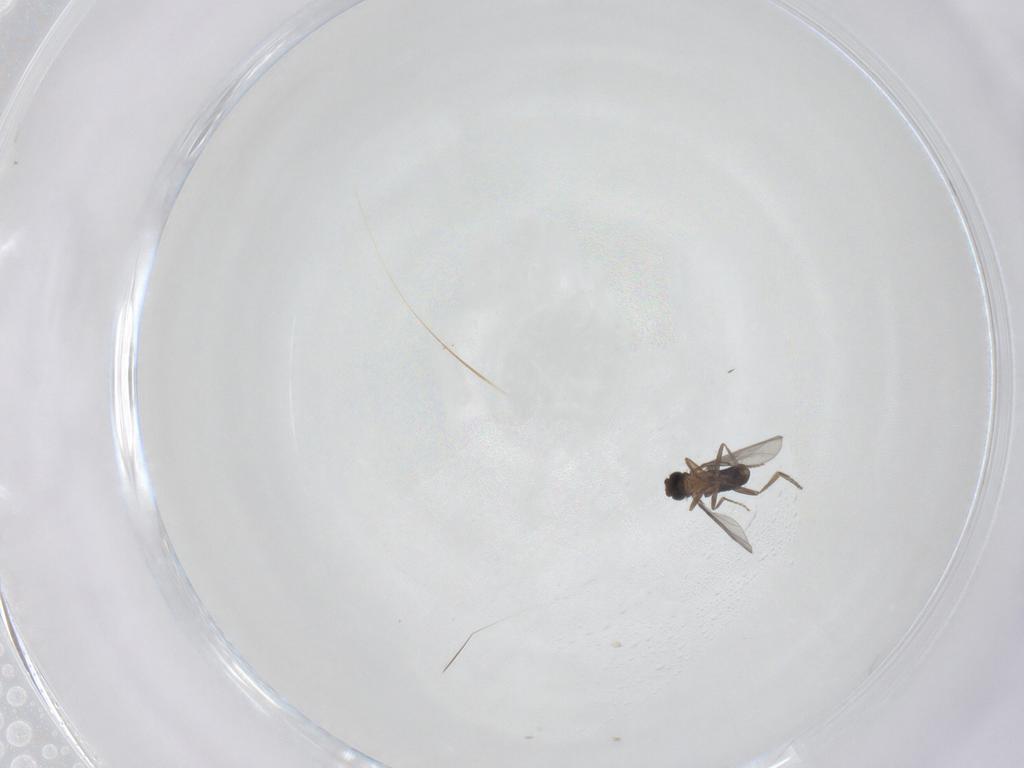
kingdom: Animalia
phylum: Arthropoda
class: Insecta
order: Diptera
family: Phoridae
